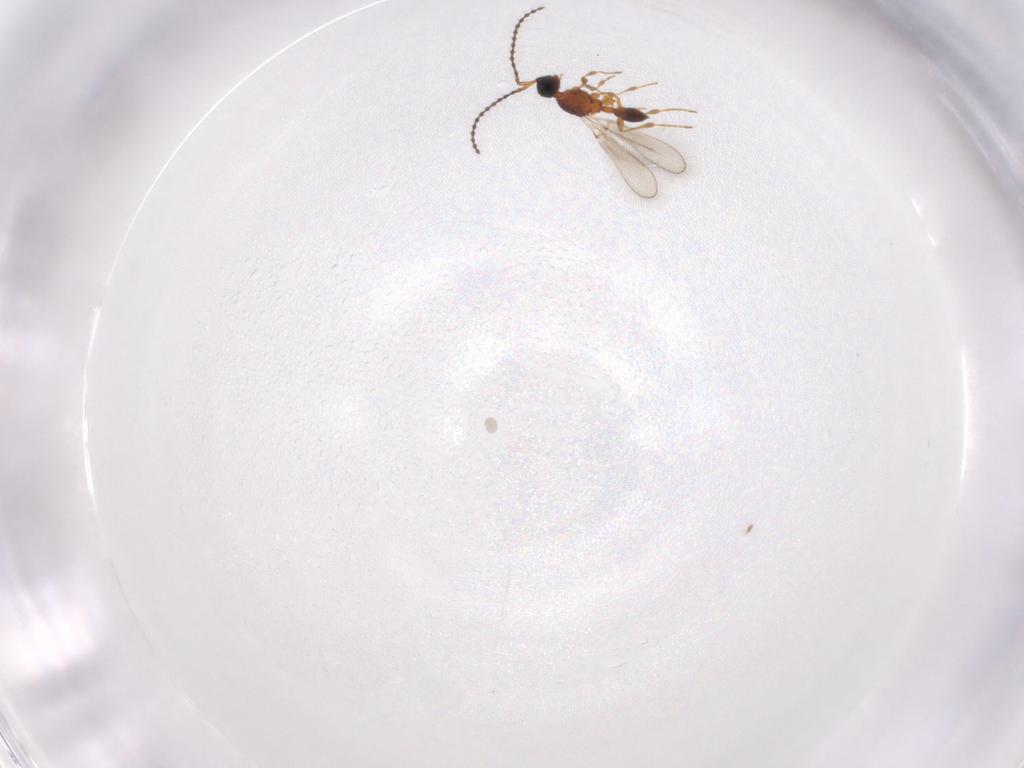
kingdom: Animalia
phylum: Arthropoda
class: Insecta
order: Hymenoptera
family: Diapriidae
